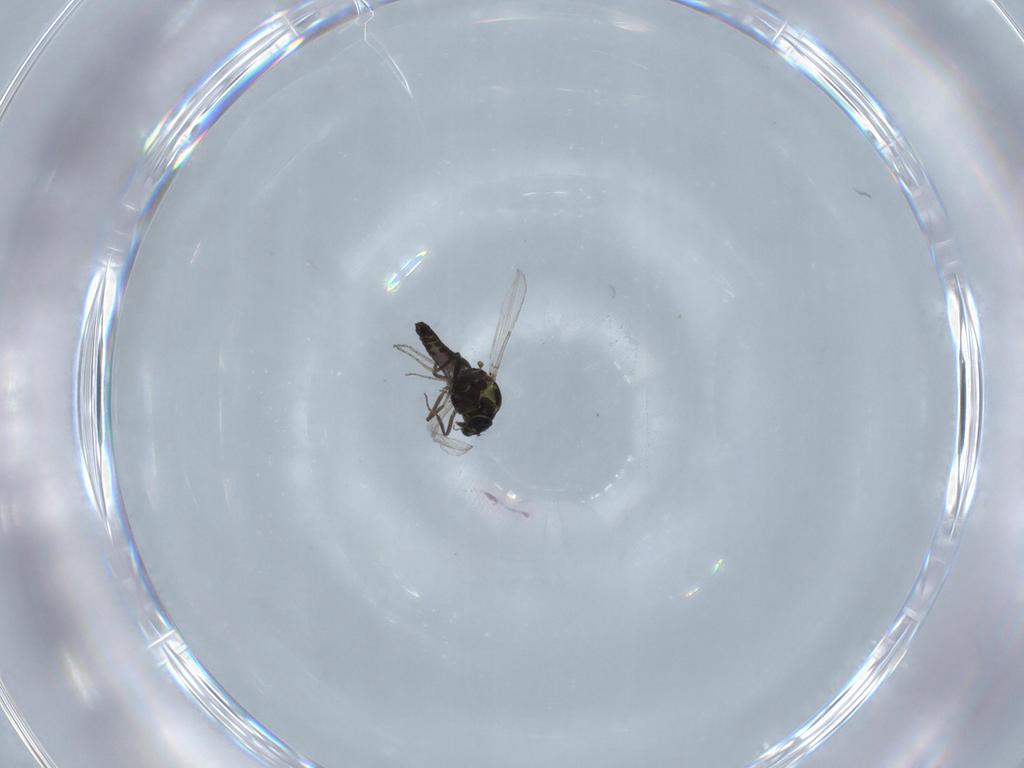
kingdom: Animalia
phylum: Arthropoda
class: Insecta
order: Diptera
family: Ceratopogonidae
